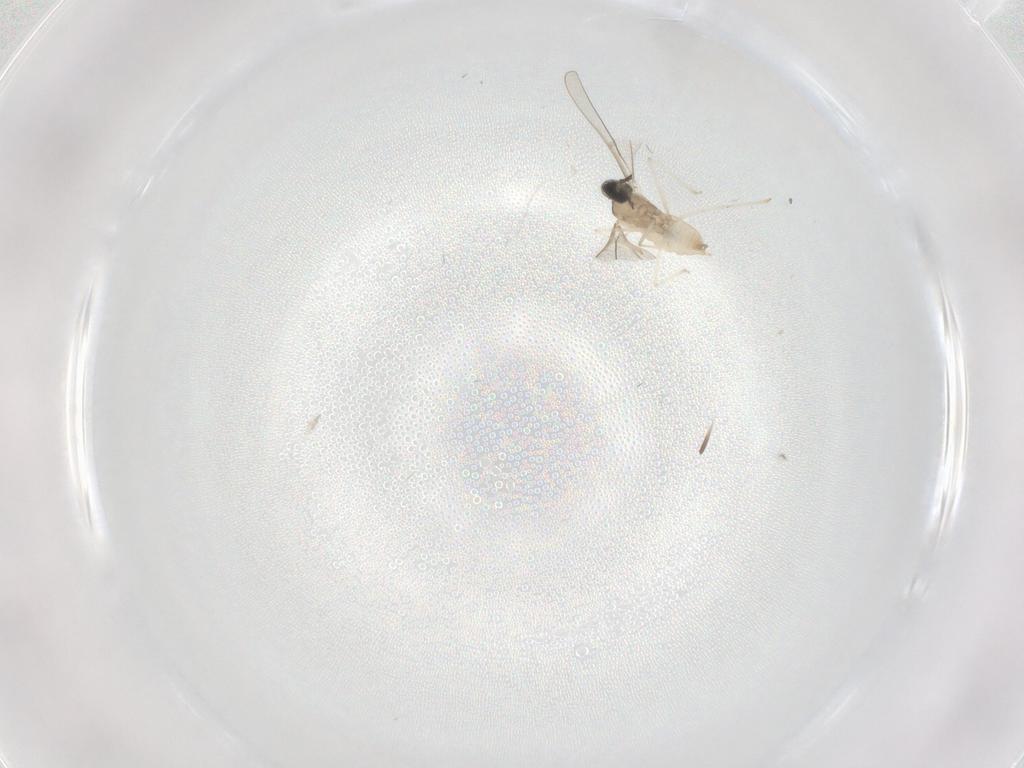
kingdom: Animalia
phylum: Arthropoda
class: Insecta
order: Diptera
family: Cecidomyiidae
